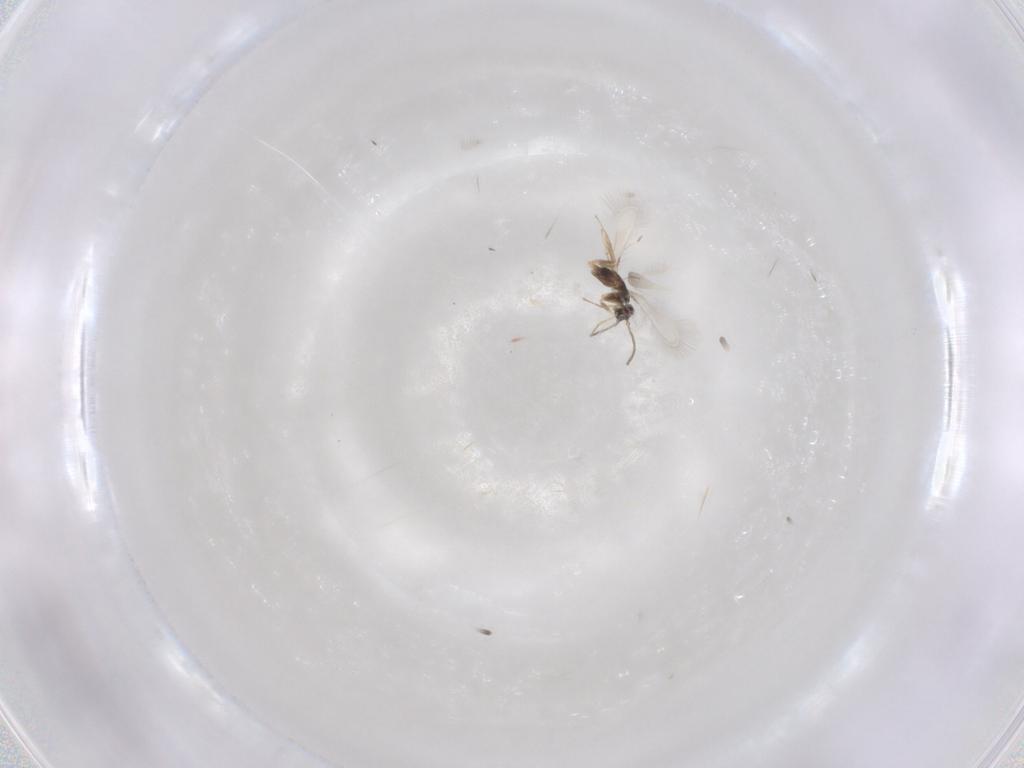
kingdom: Animalia
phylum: Arthropoda
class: Insecta
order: Hymenoptera
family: Mymaridae
